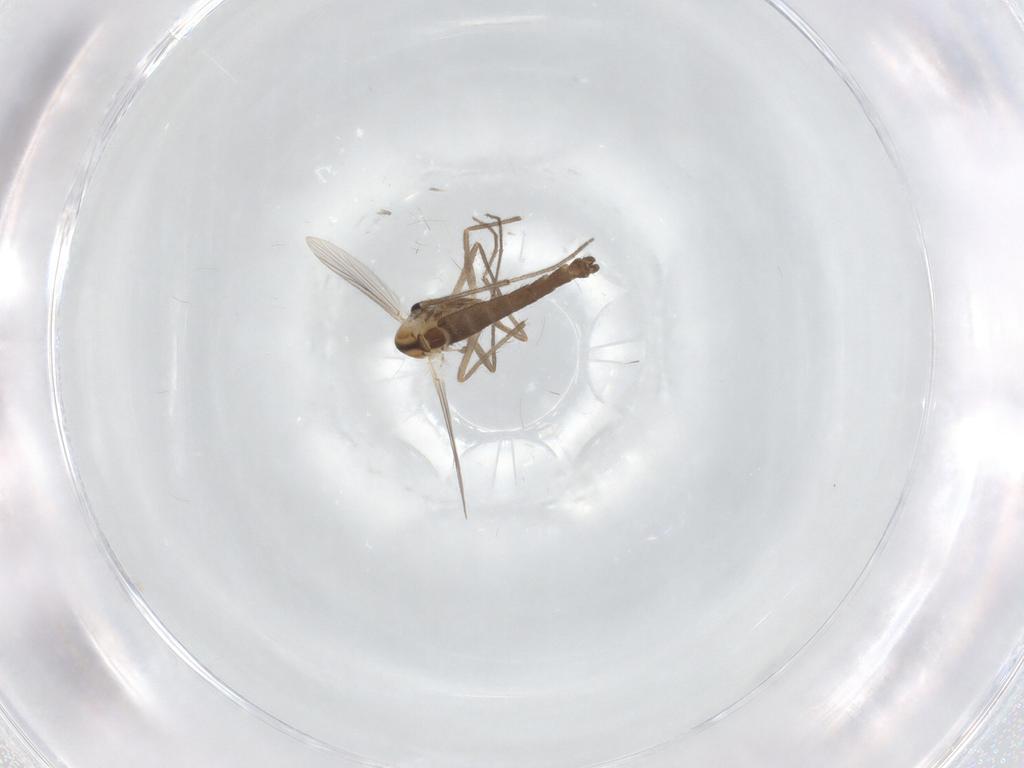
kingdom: Animalia
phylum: Arthropoda
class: Insecta
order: Diptera
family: Chironomidae
